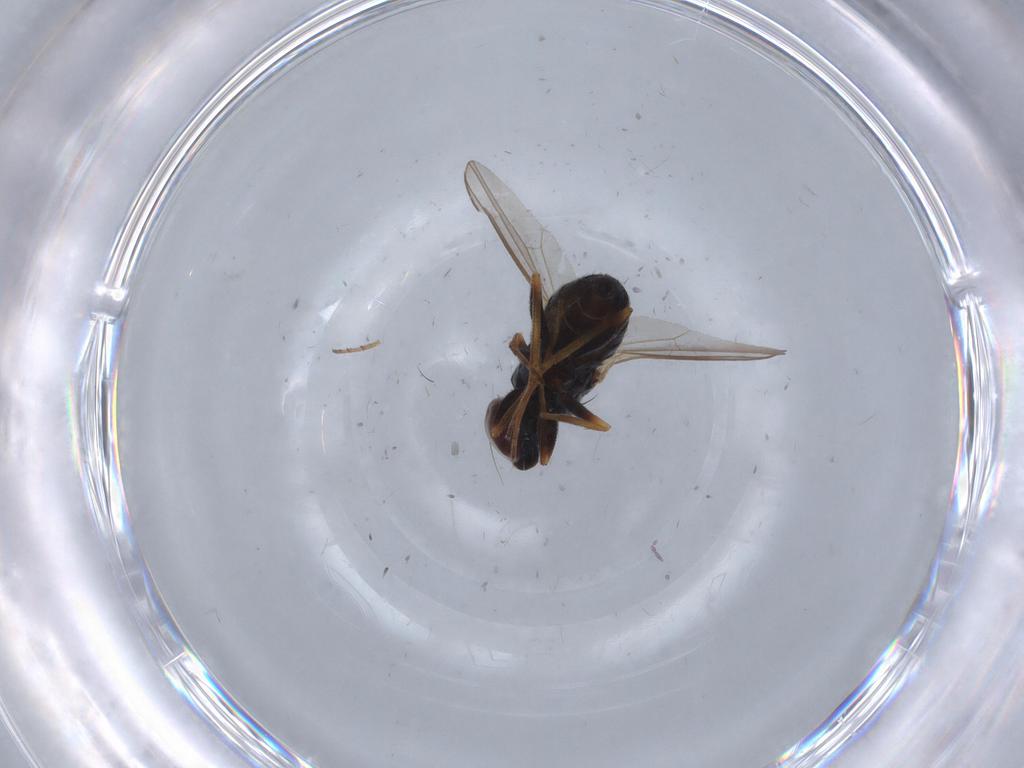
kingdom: Animalia
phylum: Arthropoda
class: Insecta
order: Diptera
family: Dolichopodidae
